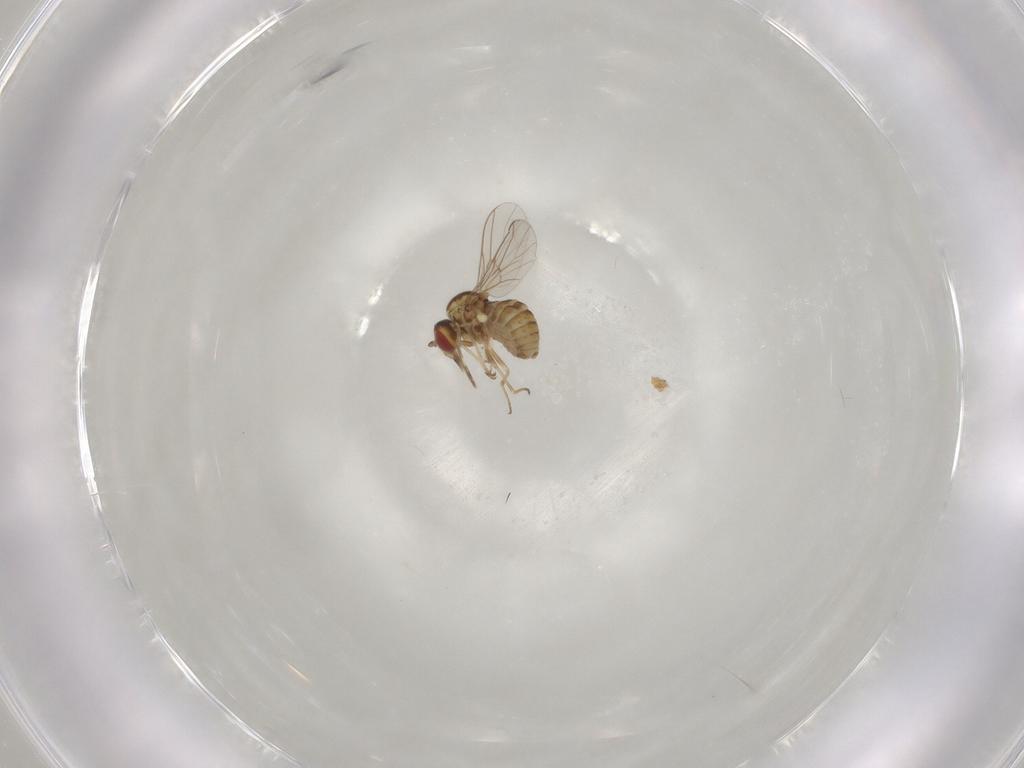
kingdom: Animalia
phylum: Arthropoda
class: Insecta
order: Diptera
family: Mythicomyiidae
